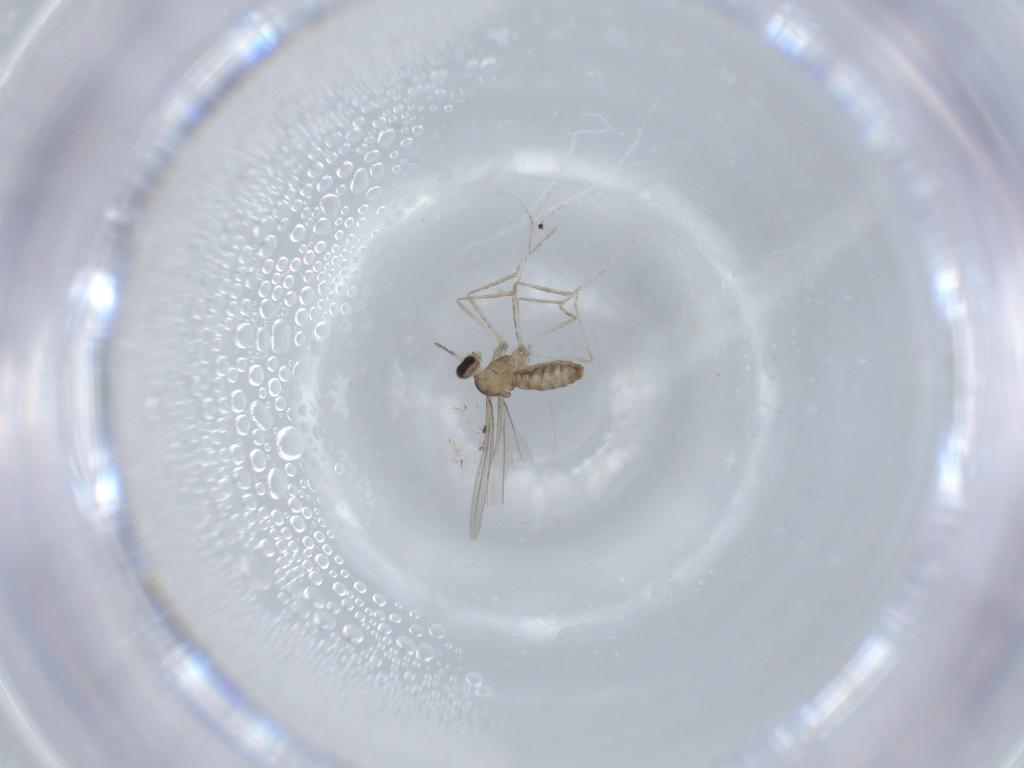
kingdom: Animalia
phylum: Arthropoda
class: Insecta
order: Diptera
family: Cecidomyiidae
